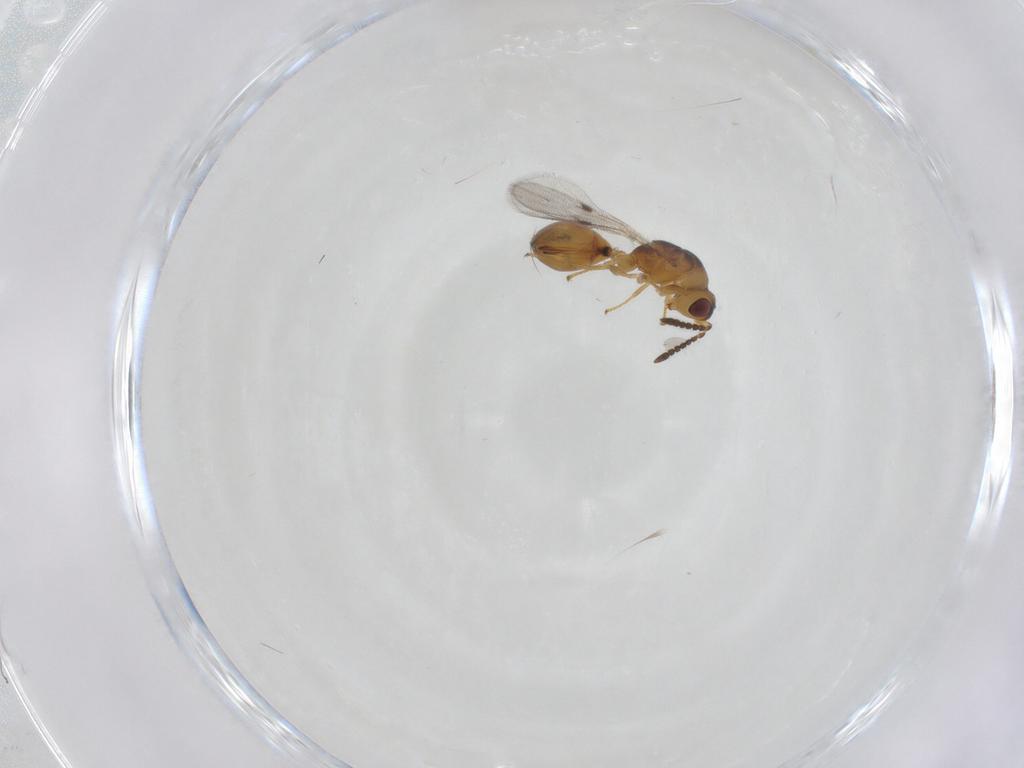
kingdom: Animalia
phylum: Arthropoda
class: Insecta
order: Hymenoptera
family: Eurytomidae
